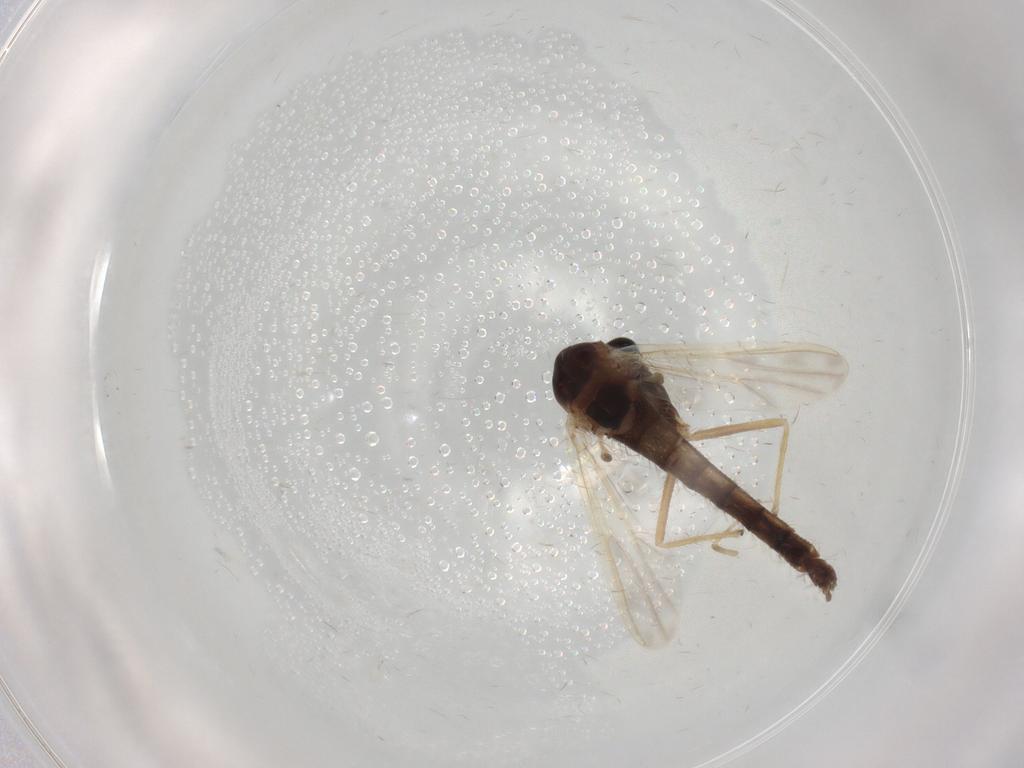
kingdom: Animalia
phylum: Arthropoda
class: Insecta
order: Diptera
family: Chironomidae
